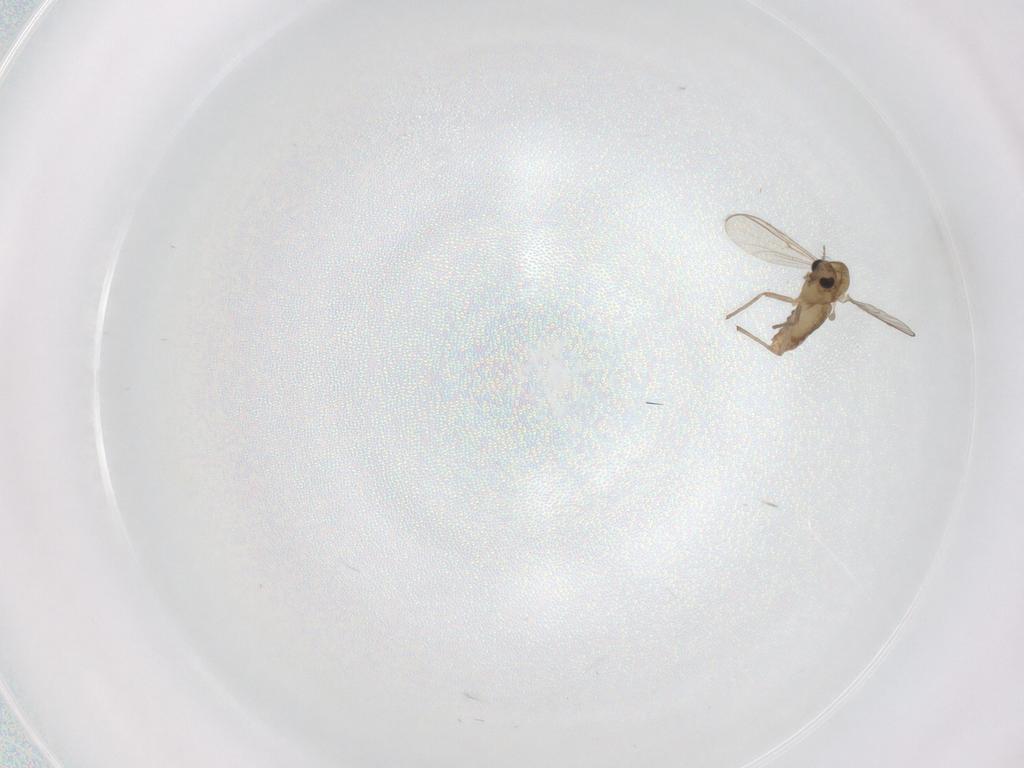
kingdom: Animalia
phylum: Arthropoda
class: Insecta
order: Diptera
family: Chironomidae
